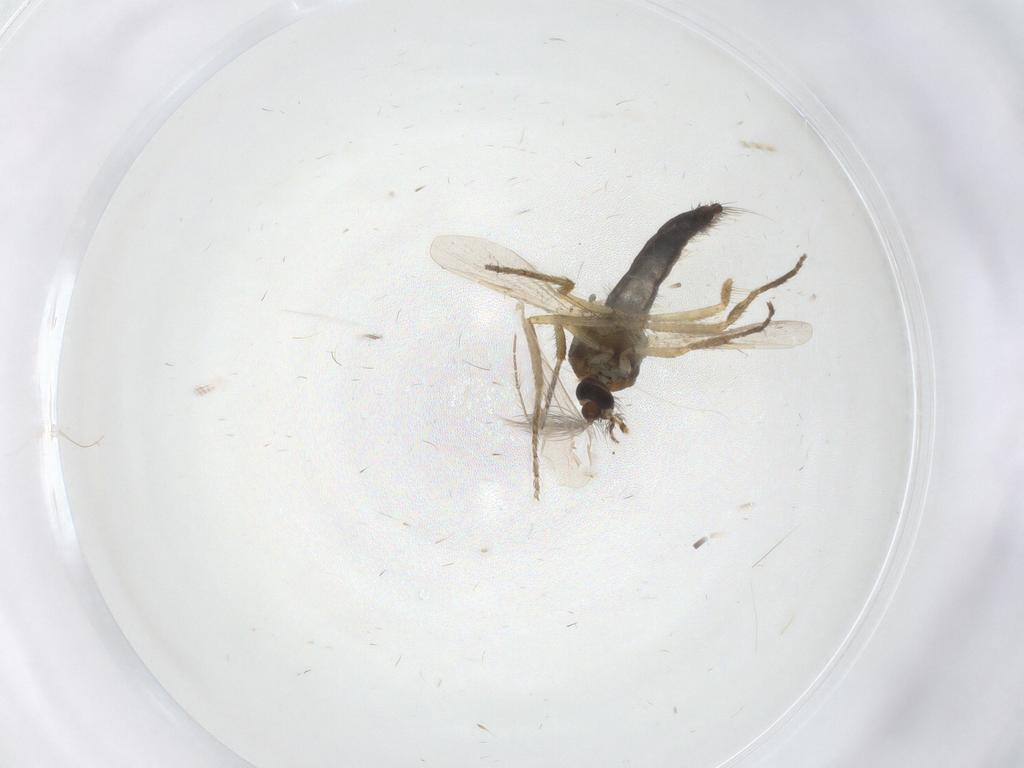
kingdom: Animalia
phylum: Arthropoda
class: Insecta
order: Diptera
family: Ceratopogonidae
